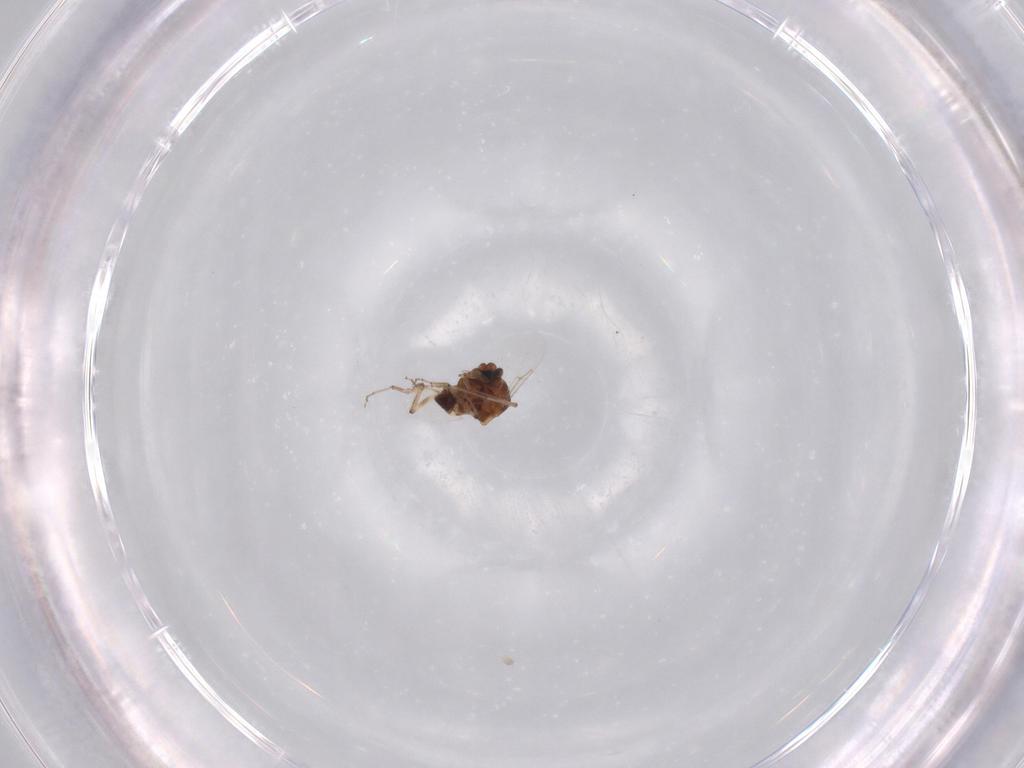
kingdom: Animalia
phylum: Arthropoda
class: Insecta
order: Diptera
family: Ceratopogonidae
